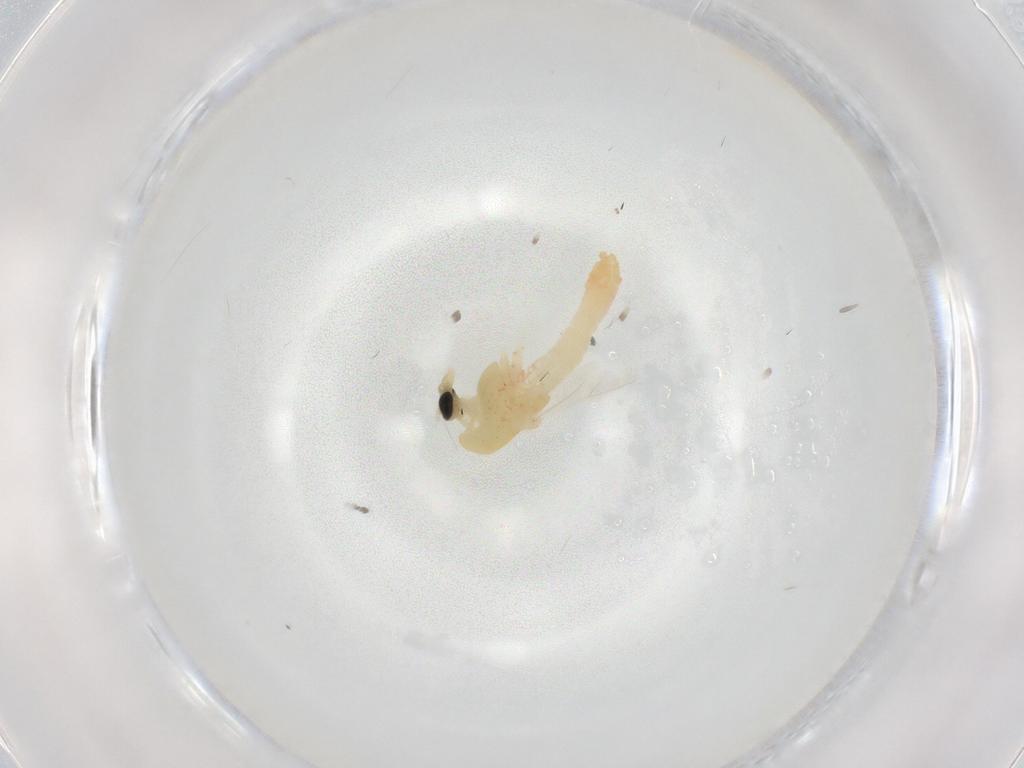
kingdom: Animalia
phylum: Arthropoda
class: Insecta
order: Diptera
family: Chironomidae
